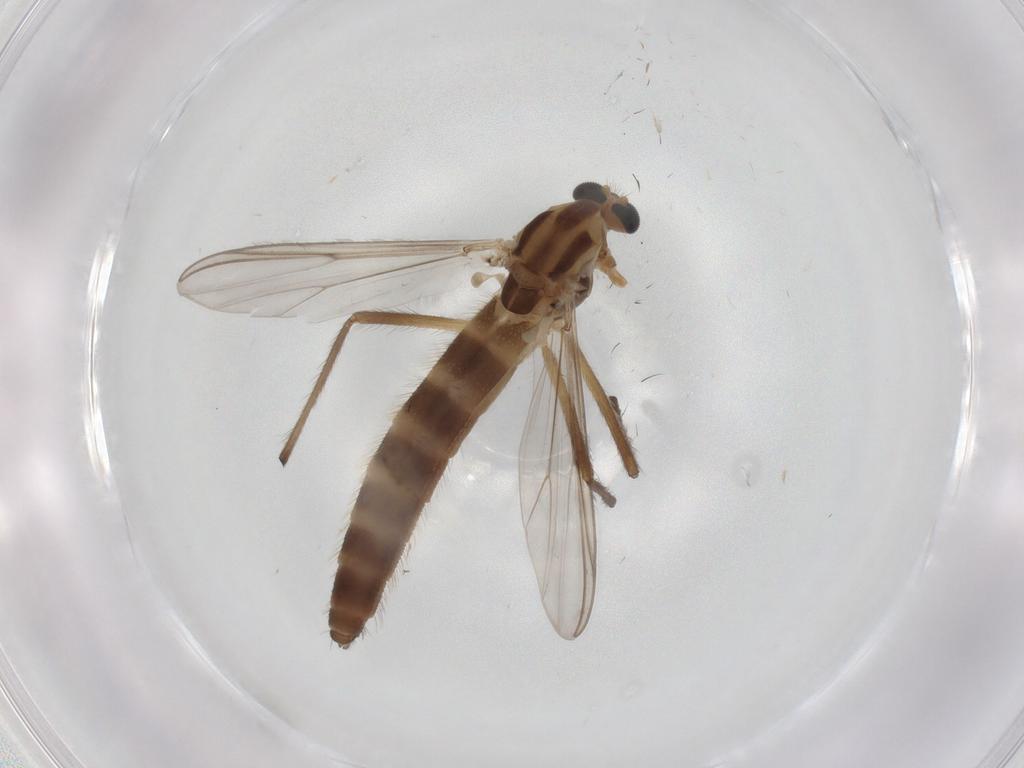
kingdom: Animalia
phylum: Arthropoda
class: Insecta
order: Diptera
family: Chironomidae
